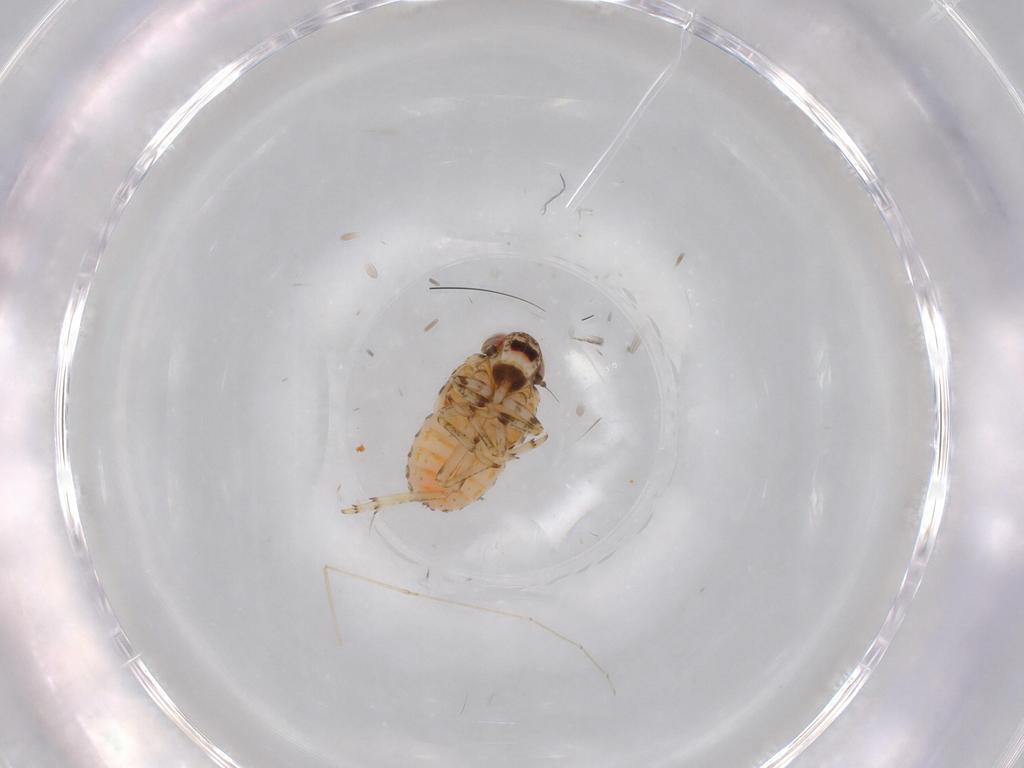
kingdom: Animalia
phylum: Arthropoda
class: Insecta
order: Hemiptera
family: Issidae
